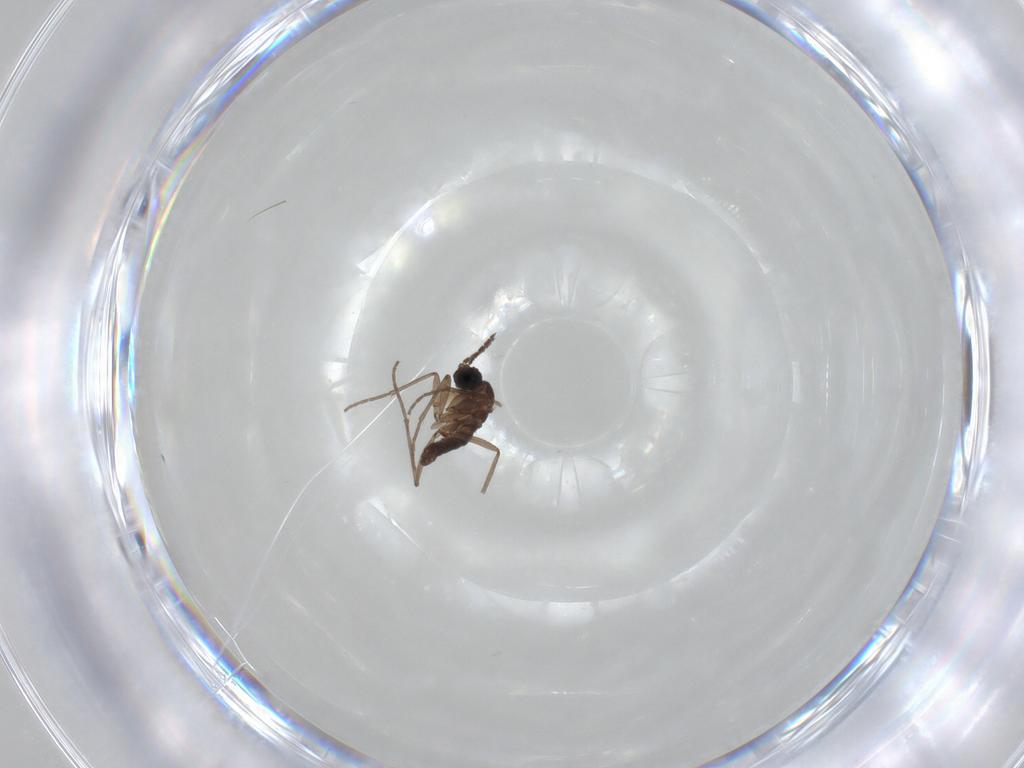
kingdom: Animalia
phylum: Arthropoda
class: Insecta
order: Diptera
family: Sciaridae
